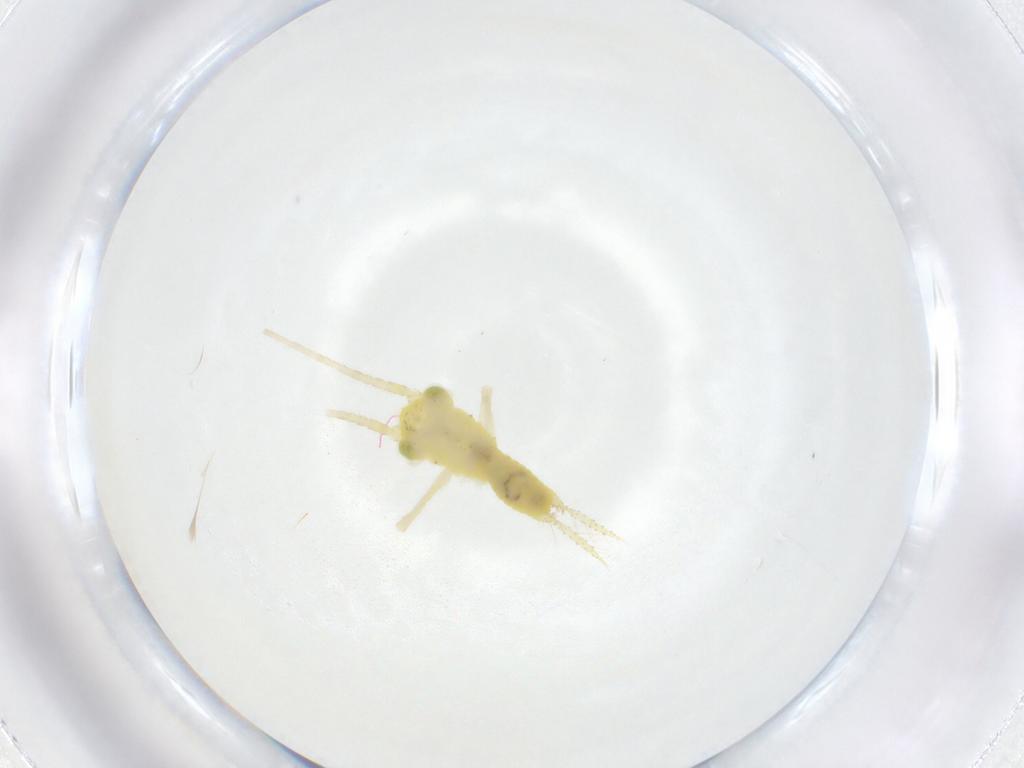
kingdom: Animalia
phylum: Arthropoda
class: Insecta
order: Orthoptera
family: Trigonidiidae
